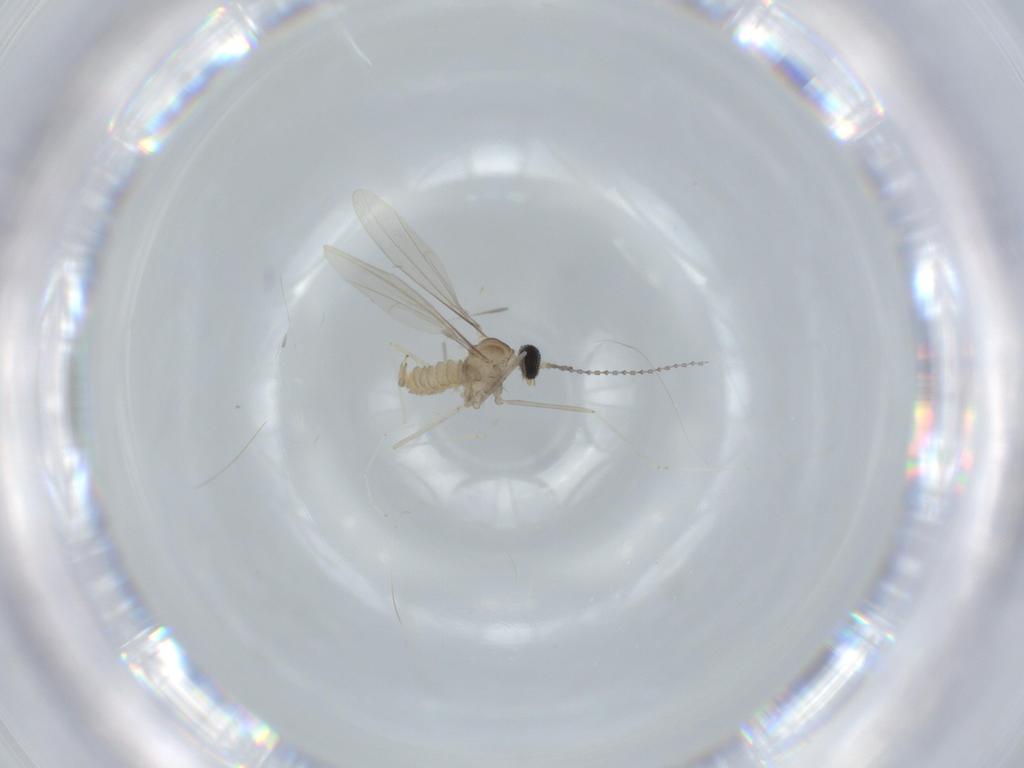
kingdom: Animalia
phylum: Arthropoda
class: Insecta
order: Diptera
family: Cecidomyiidae
